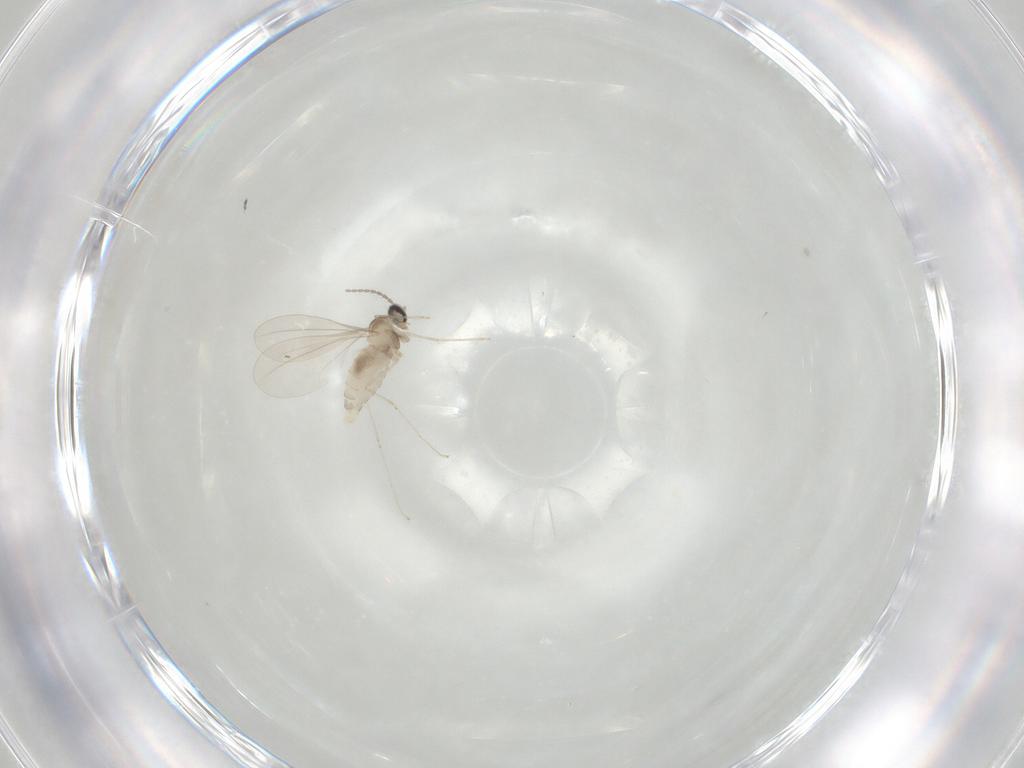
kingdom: Animalia
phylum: Arthropoda
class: Insecta
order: Diptera
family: Cecidomyiidae
